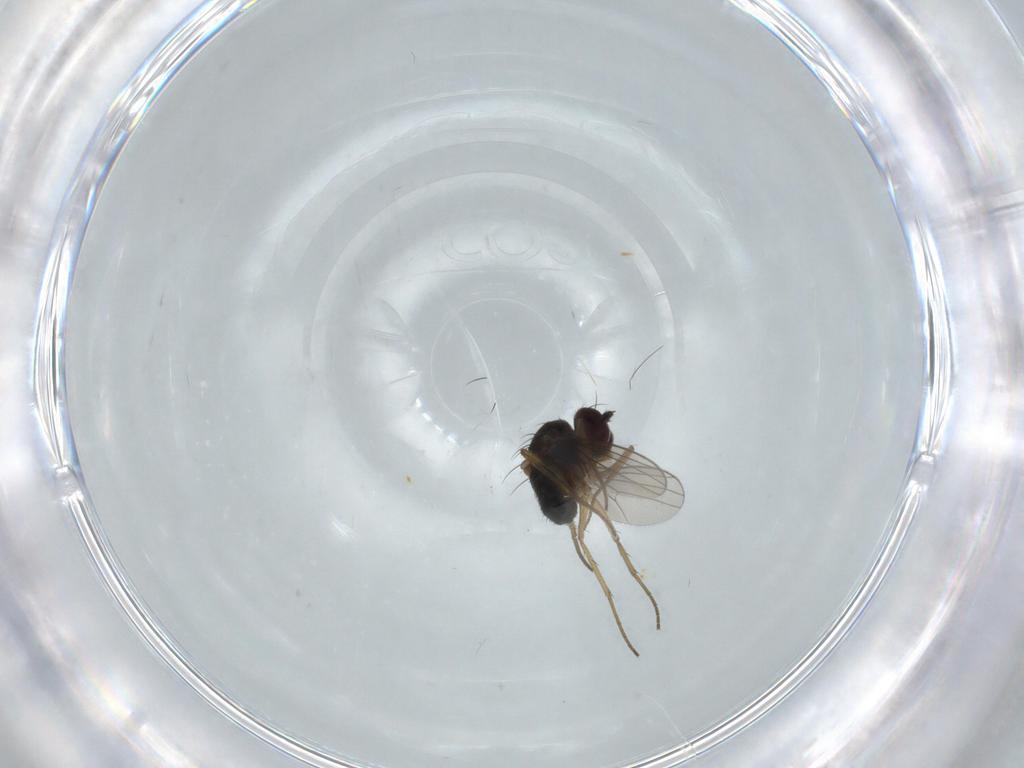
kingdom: Animalia
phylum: Arthropoda
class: Insecta
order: Diptera
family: Dolichopodidae
